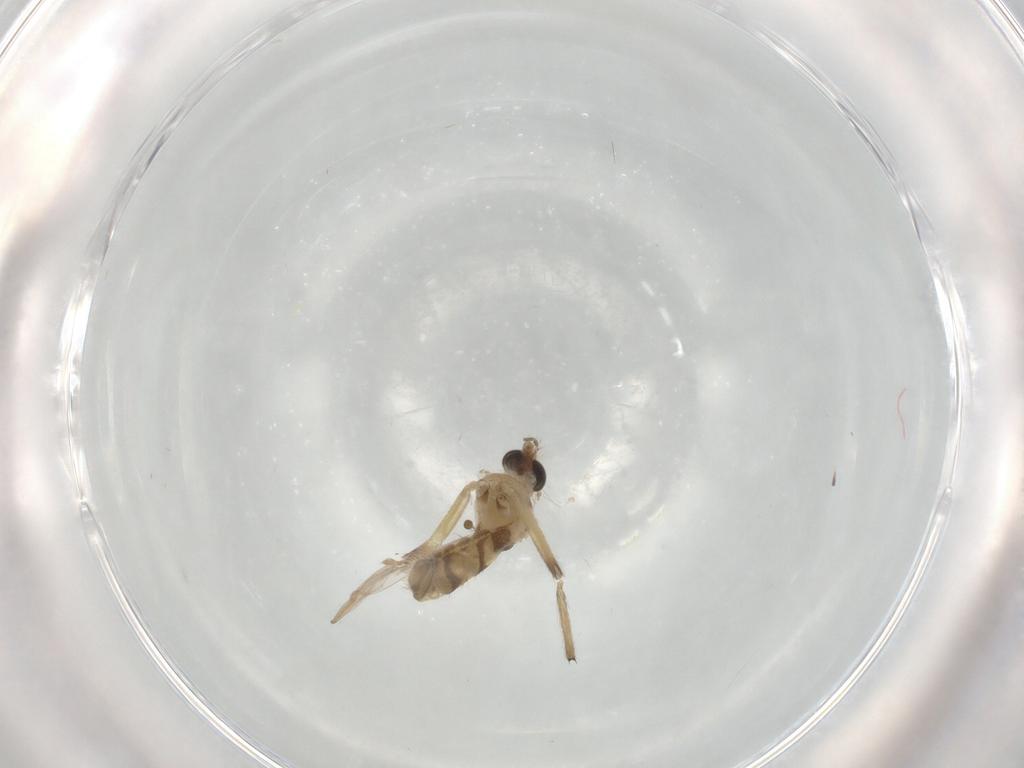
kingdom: Animalia
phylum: Arthropoda
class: Insecta
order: Diptera
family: Chironomidae
